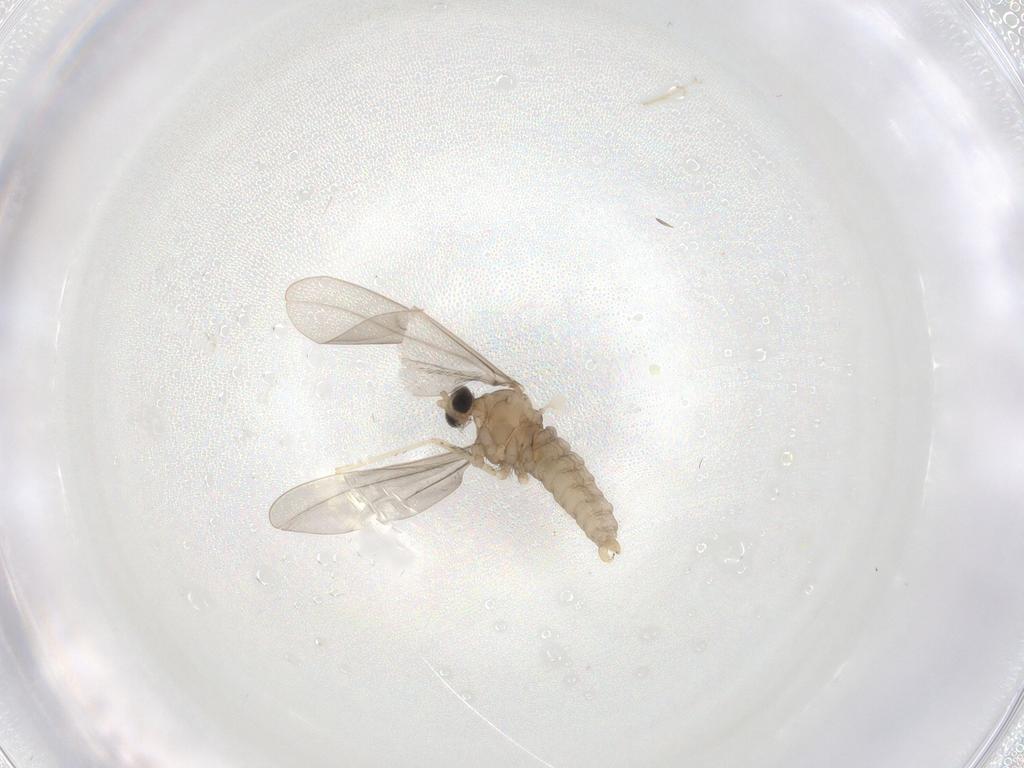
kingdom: Animalia
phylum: Arthropoda
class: Insecta
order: Diptera
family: Cecidomyiidae
